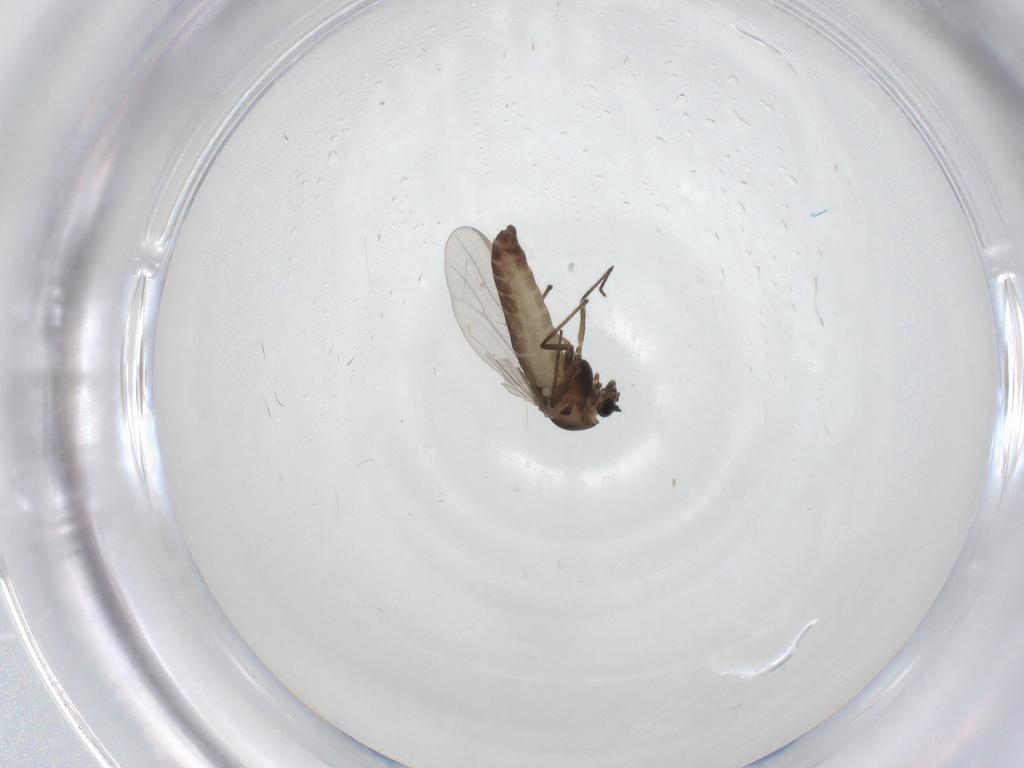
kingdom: Animalia
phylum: Arthropoda
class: Insecta
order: Diptera
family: Chironomidae
